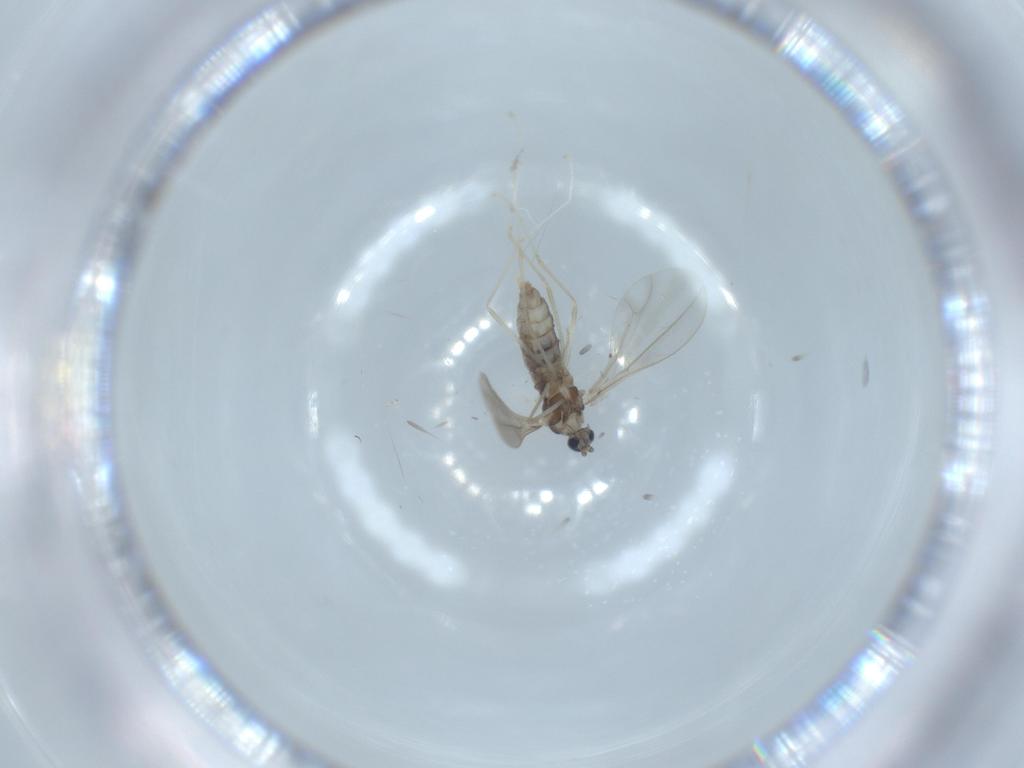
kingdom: Animalia
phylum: Arthropoda
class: Insecta
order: Diptera
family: Cecidomyiidae
